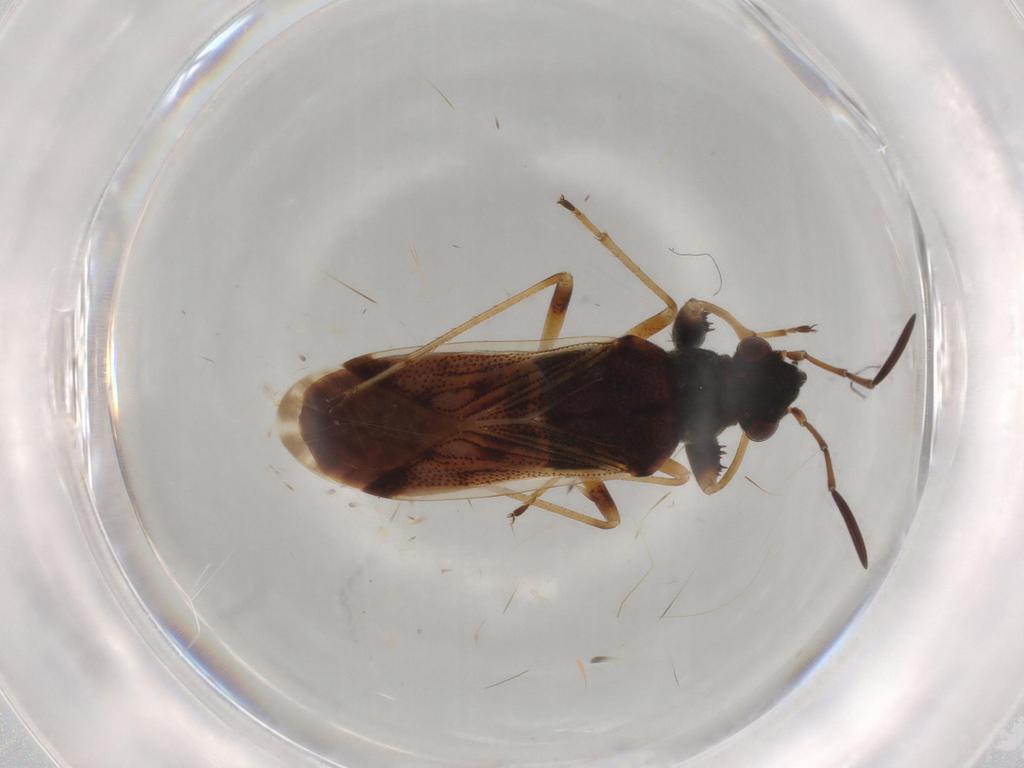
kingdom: Animalia
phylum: Arthropoda
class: Insecta
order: Hemiptera
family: Rhyparochromidae
